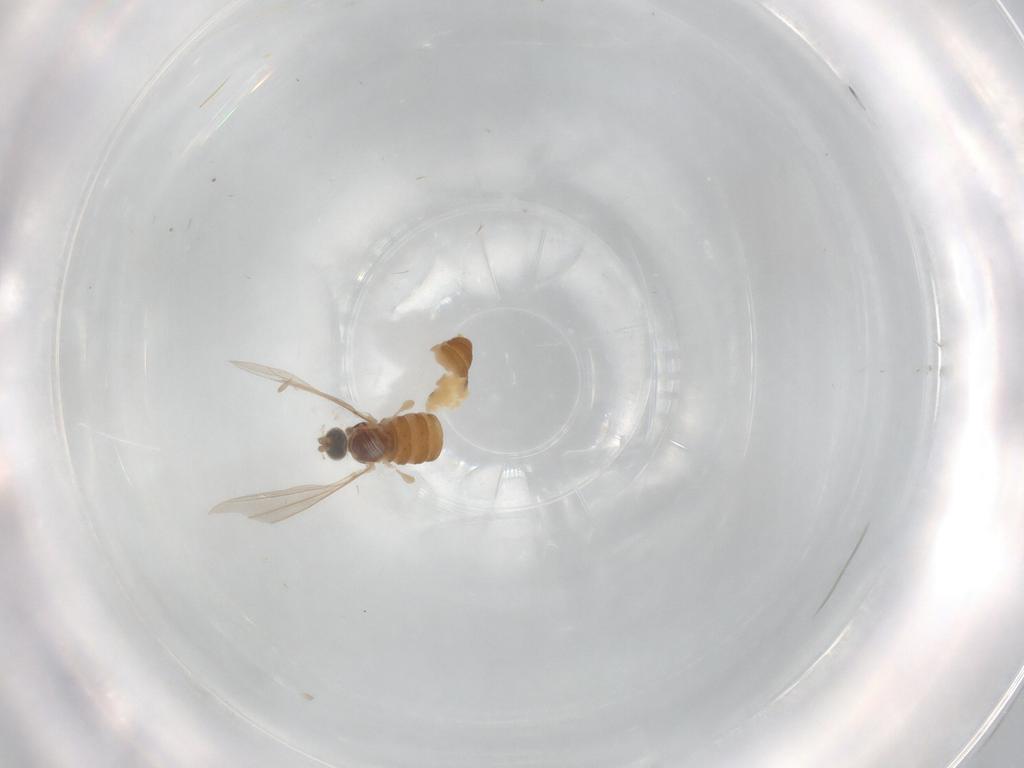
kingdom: Animalia
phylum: Arthropoda
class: Insecta
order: Diptera
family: Cecidomyiidae
